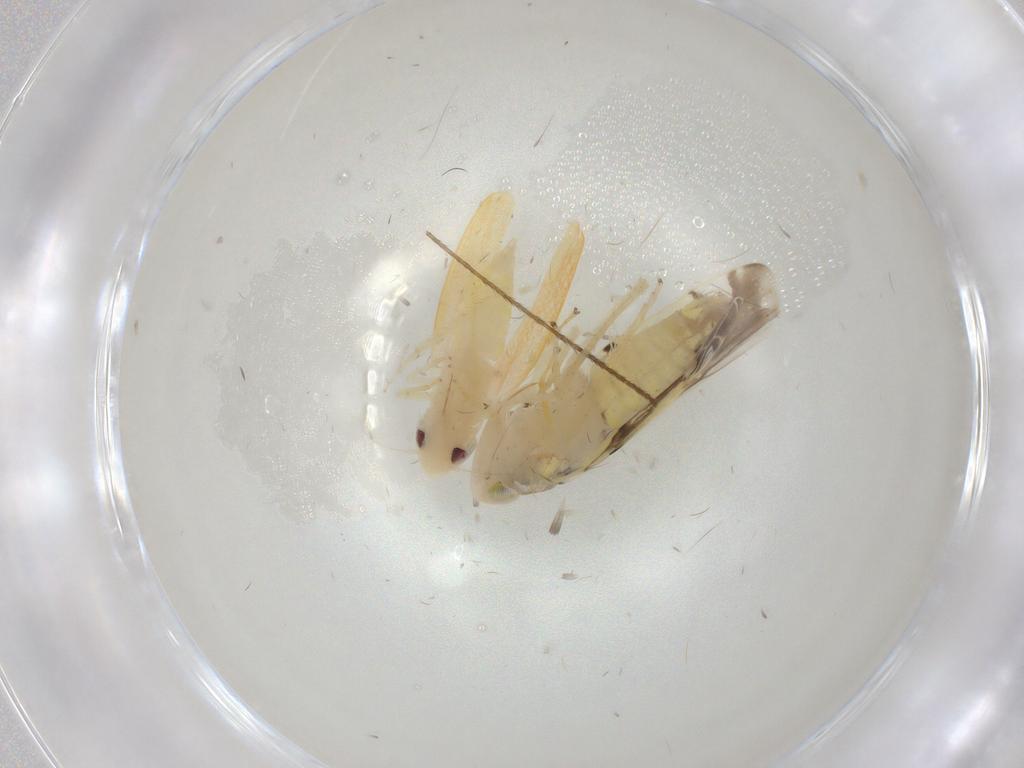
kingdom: Animalia
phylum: Arthropoda
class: Insecta
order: Hemiptera
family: Cicadellidae
